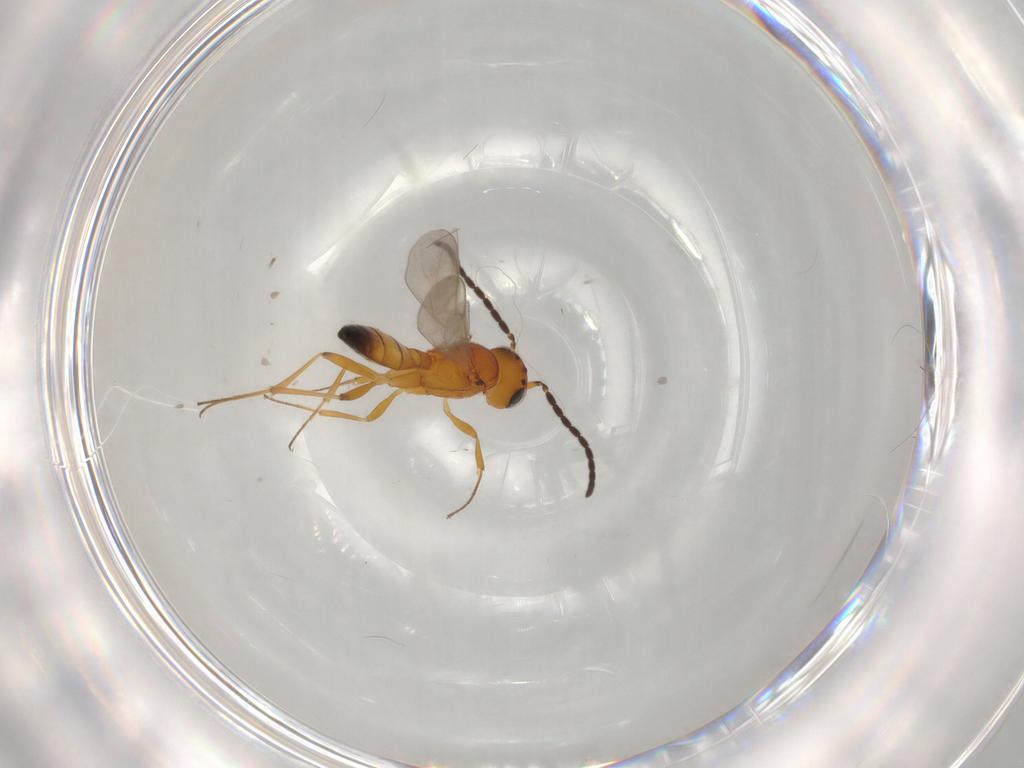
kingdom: Animalia
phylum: Arthropoda
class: Insecta
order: Hymenoptera
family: Scelionidae
